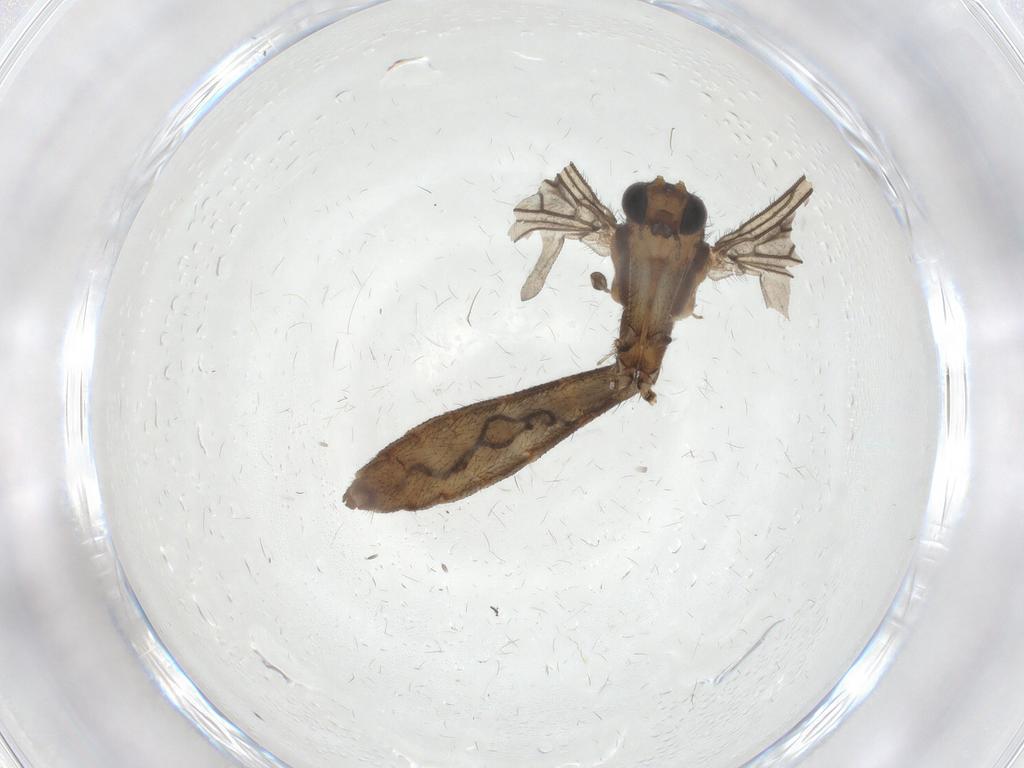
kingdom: Animalia
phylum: Arthropoda
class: Insecta
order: Diptera
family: Keroplatidae
